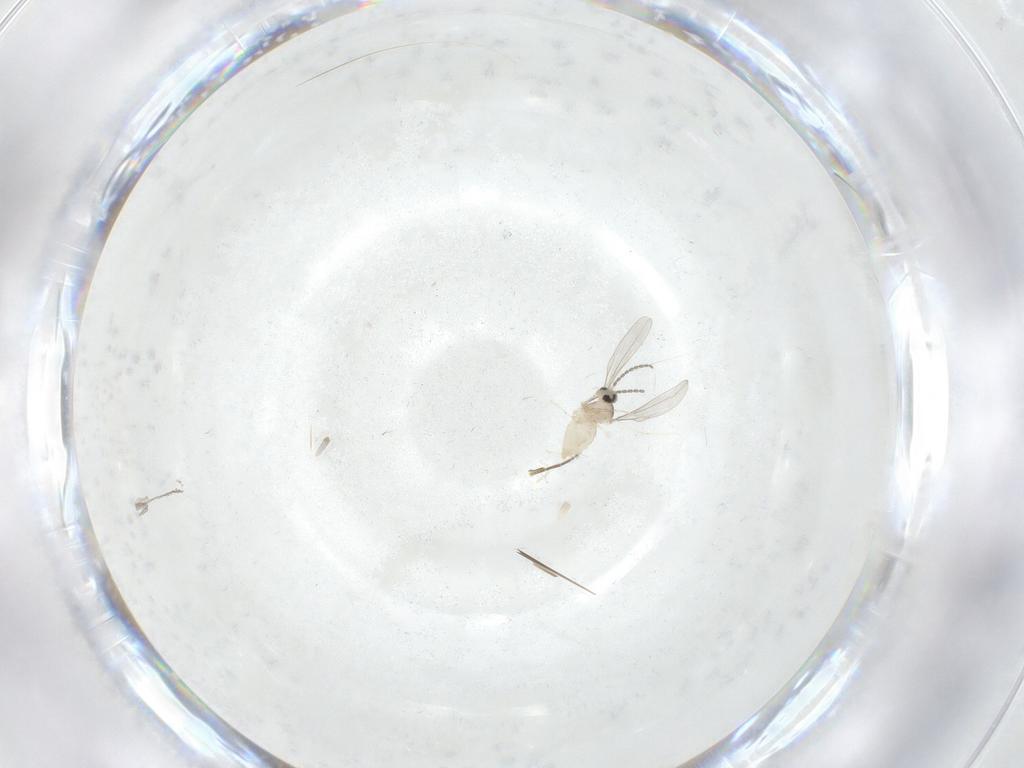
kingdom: Animalia
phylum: Arthropoda
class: Insecta
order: Diptera
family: Phoridae
